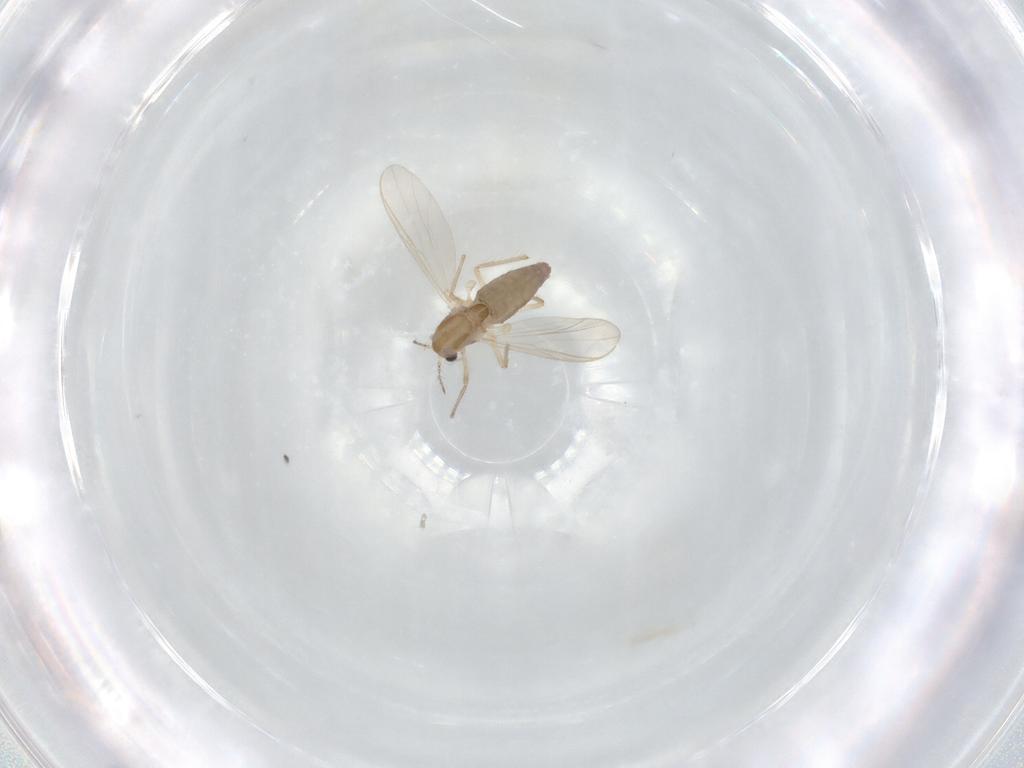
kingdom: Animalia
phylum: Arthropoda
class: Insecta
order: Diptera
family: Chironomidae
